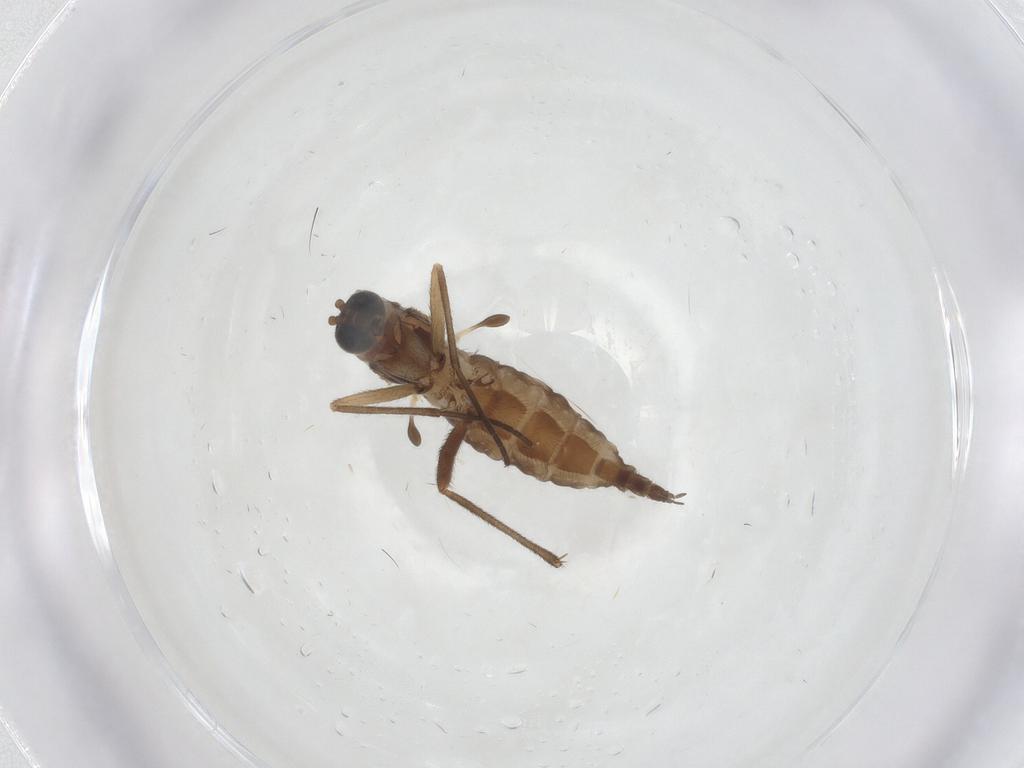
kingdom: Animalia
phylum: Arthropoda
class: Insecta
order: Diptera
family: Sciaridae
